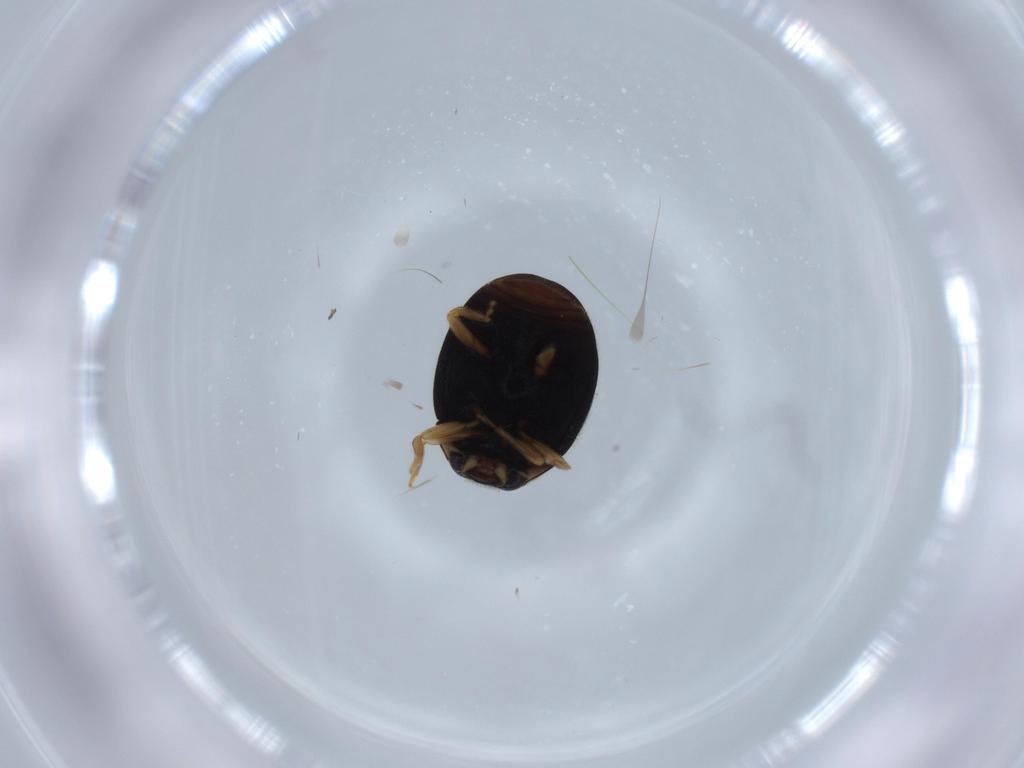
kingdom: Animalia
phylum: Arthropoda
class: Insecta
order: Coleoptera
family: Coccinellidae
